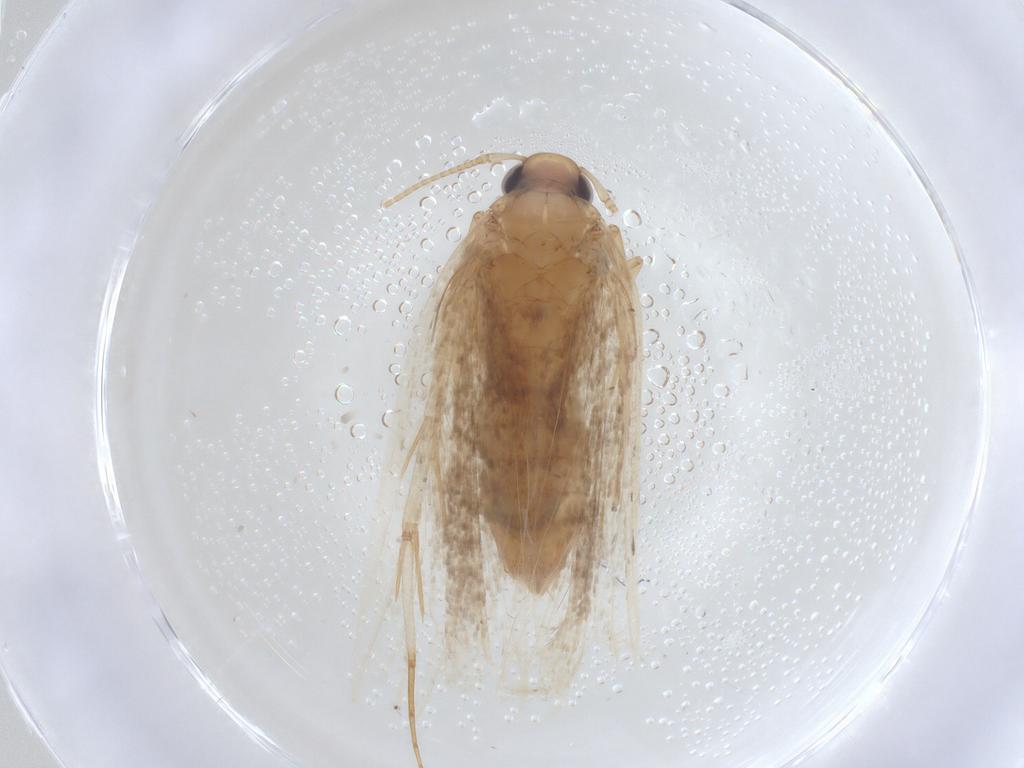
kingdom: Animalia
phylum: Arthropoda
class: Insecta
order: Lepidoptera
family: Lecithoceridae
